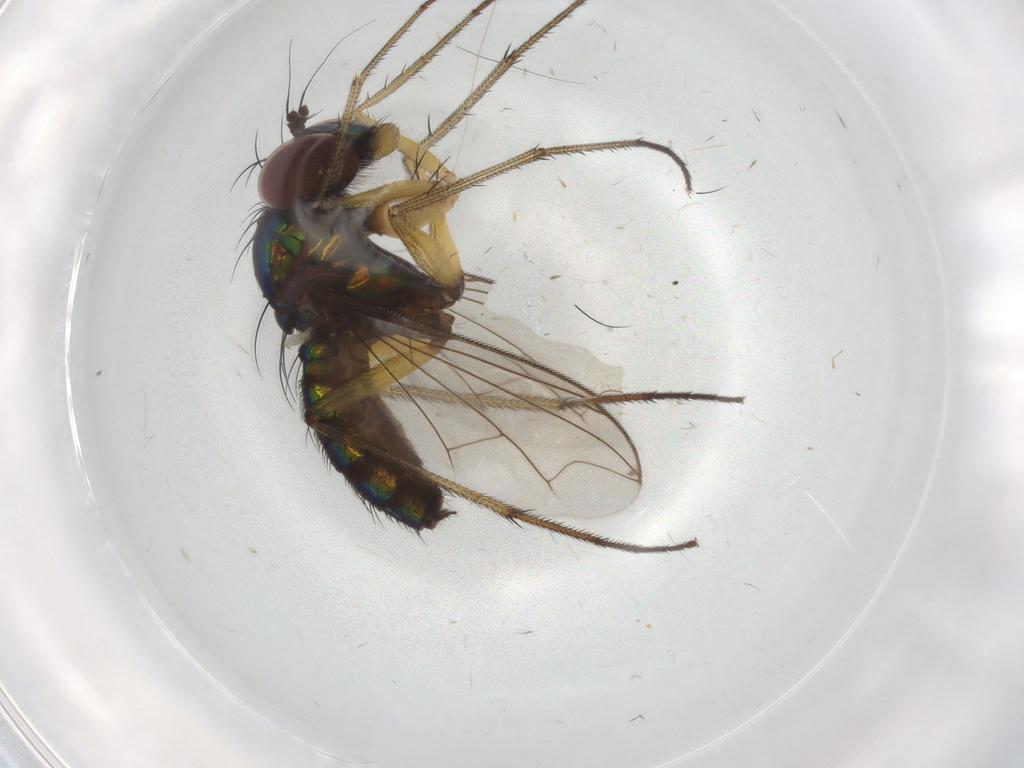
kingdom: Animalia
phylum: Arthropoda
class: Insecta
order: Diptera
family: Dolichopodidae
